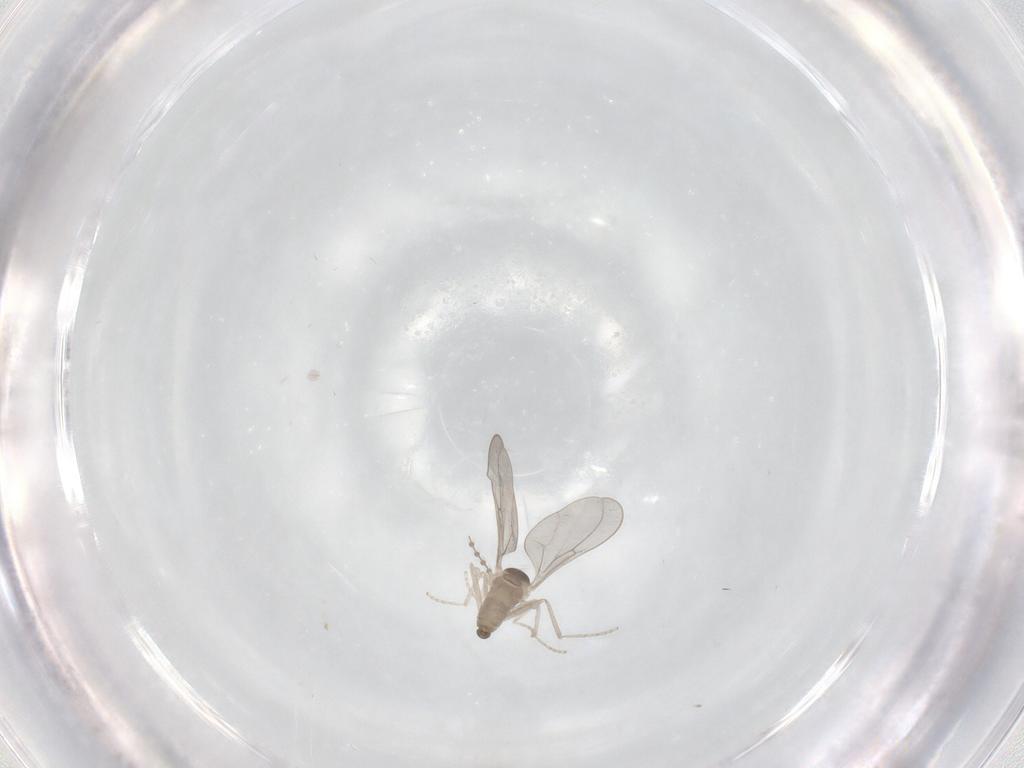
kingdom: Animalia
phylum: Arthropoda
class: Insecta
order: Diptera
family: Cecidomyiidae
